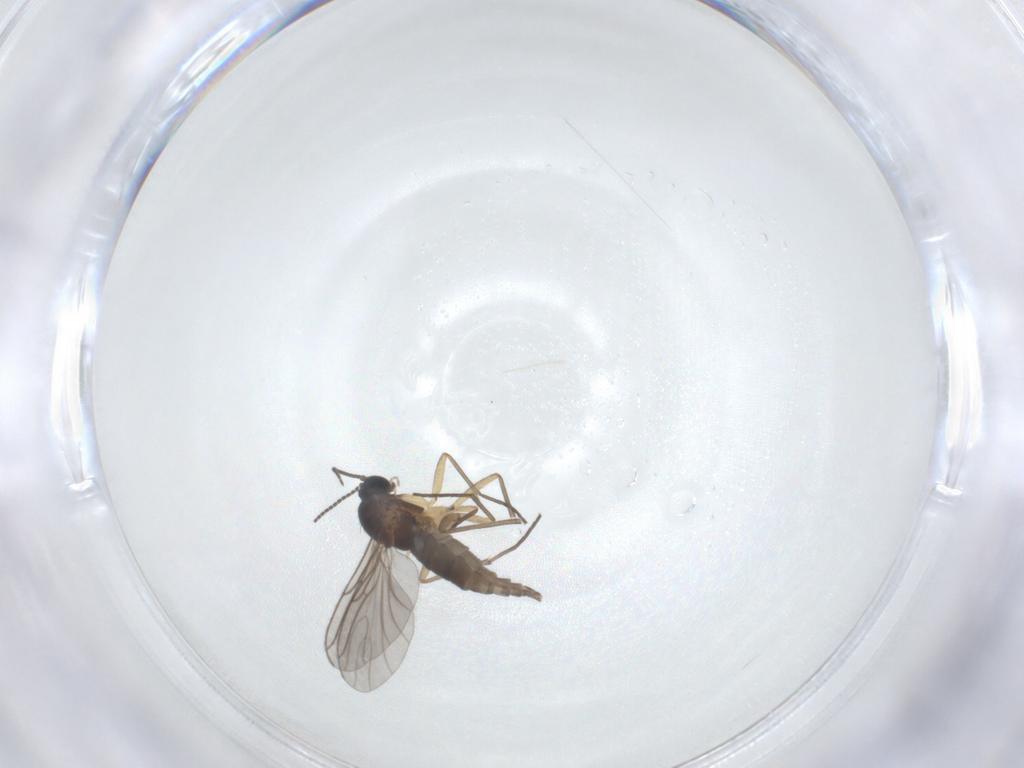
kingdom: Animalia
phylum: Arthropoda
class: Insecta
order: Diptera
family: Sciaridae
